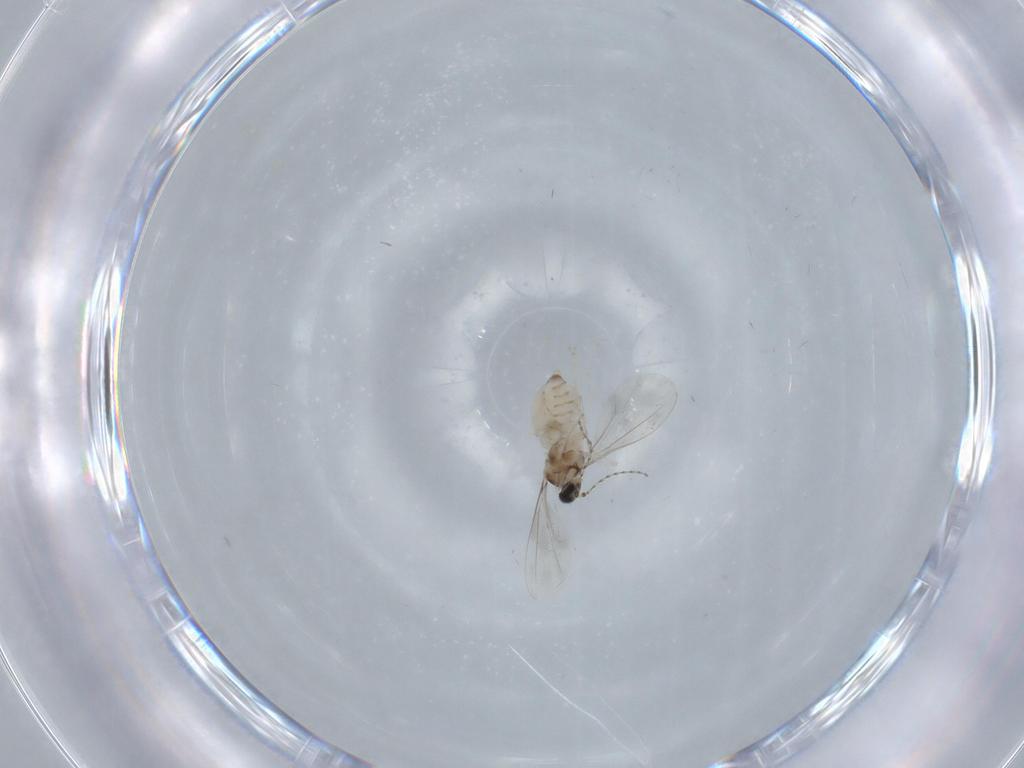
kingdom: Animalia
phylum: Arthropoda
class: Insecta
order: Diptera
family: Cecidomyiidae
